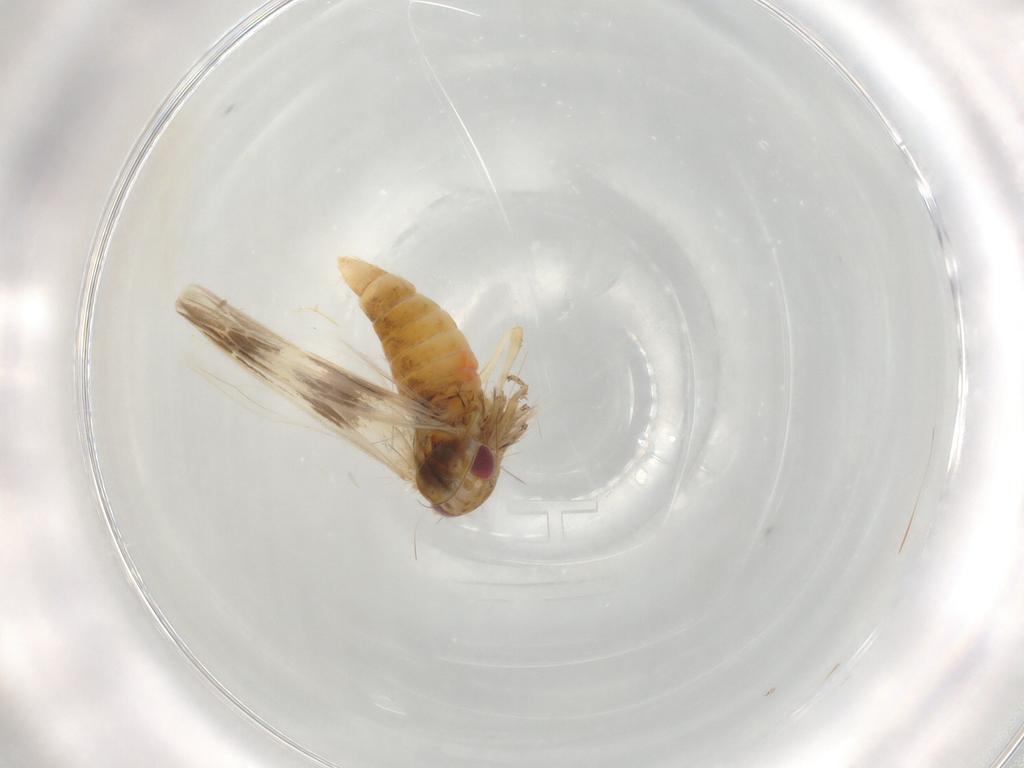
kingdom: Animalia
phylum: Arthropoda
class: Insecta
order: Hemiptera
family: Cicadellidae
